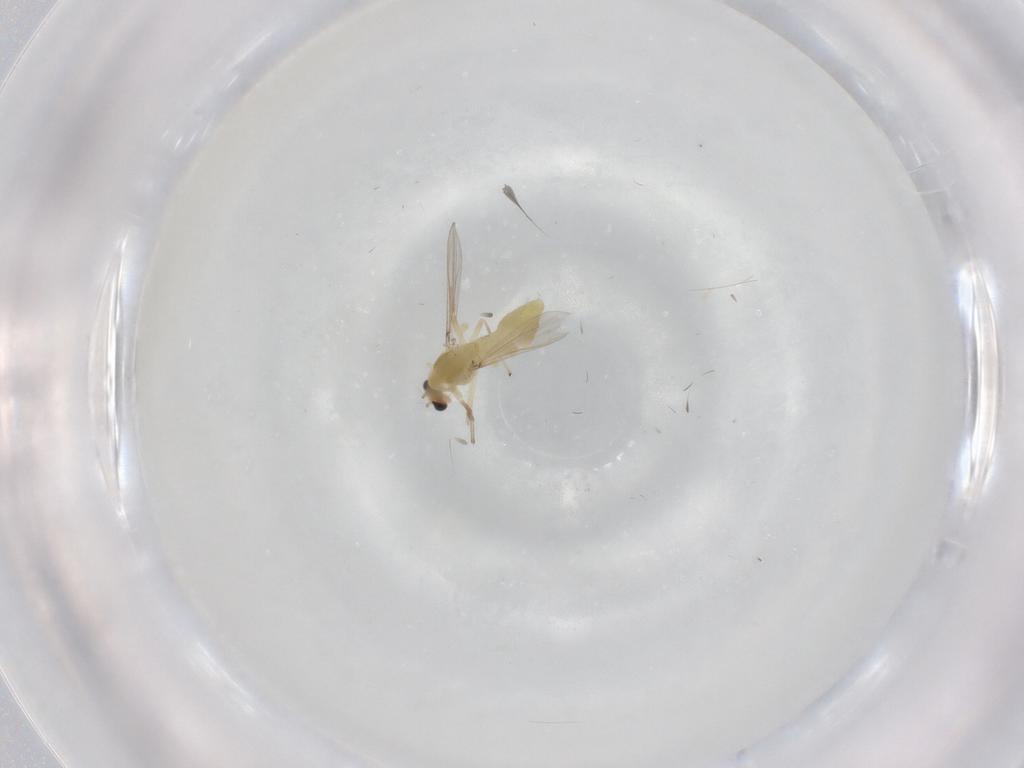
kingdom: Animalia
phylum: Arthropoda
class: Insecta
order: Diptera
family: Chironomidae
